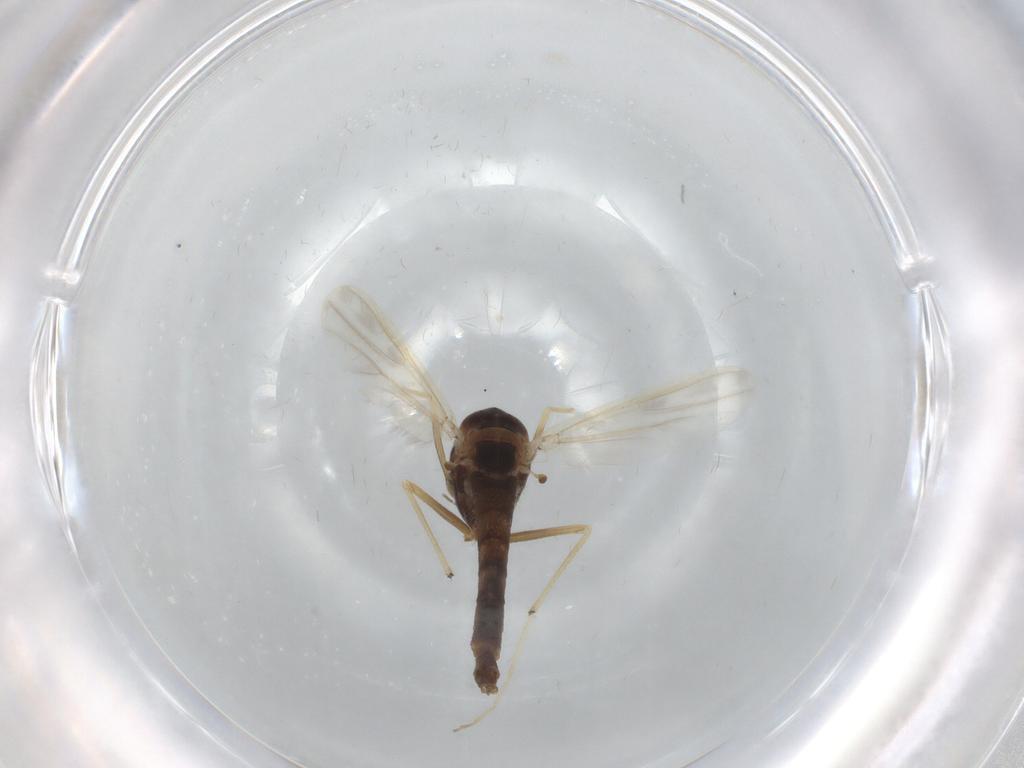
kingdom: Animalia
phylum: Arthropoda
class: Insecta
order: Diptera
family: Chironomidae
